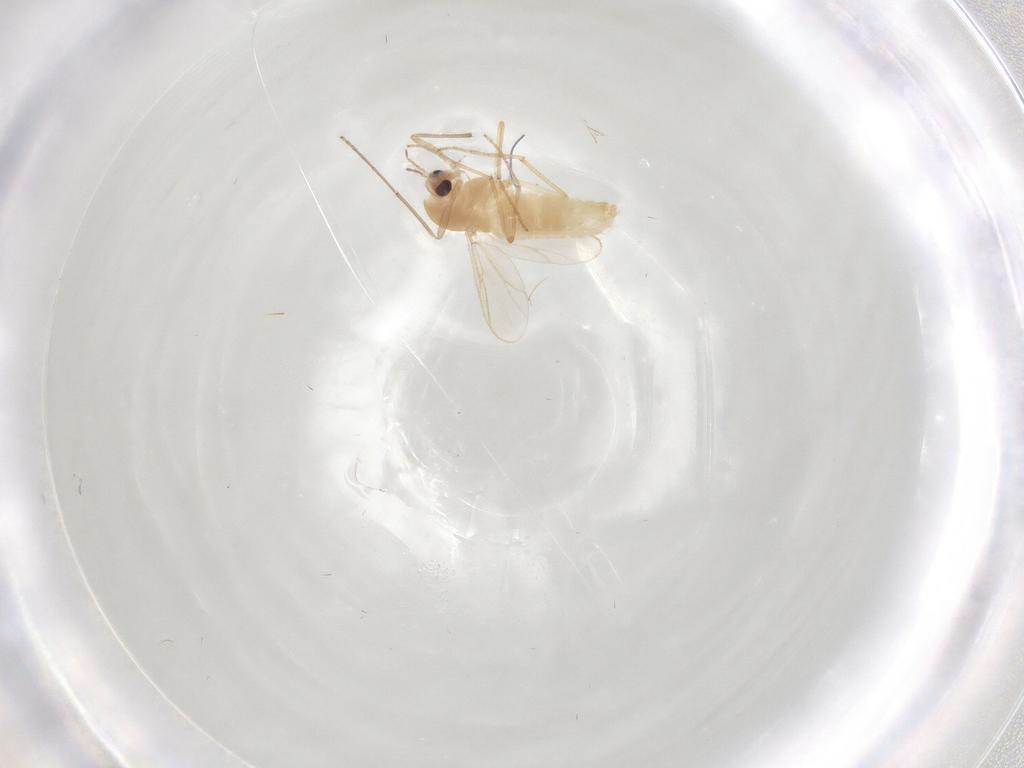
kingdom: Animalia
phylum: Arthropoda
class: Insecta
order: Diptera
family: Chironomidae
